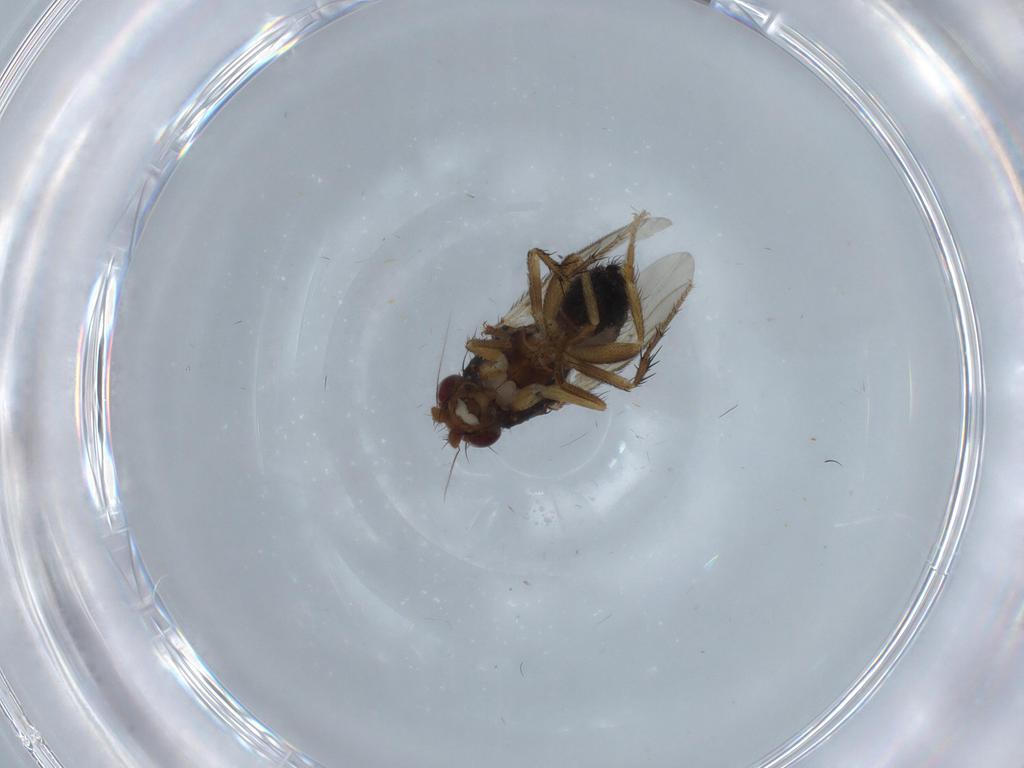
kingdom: Animalia
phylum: Arthropoda
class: Insecta
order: Diptera
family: Sphaeroceridae
